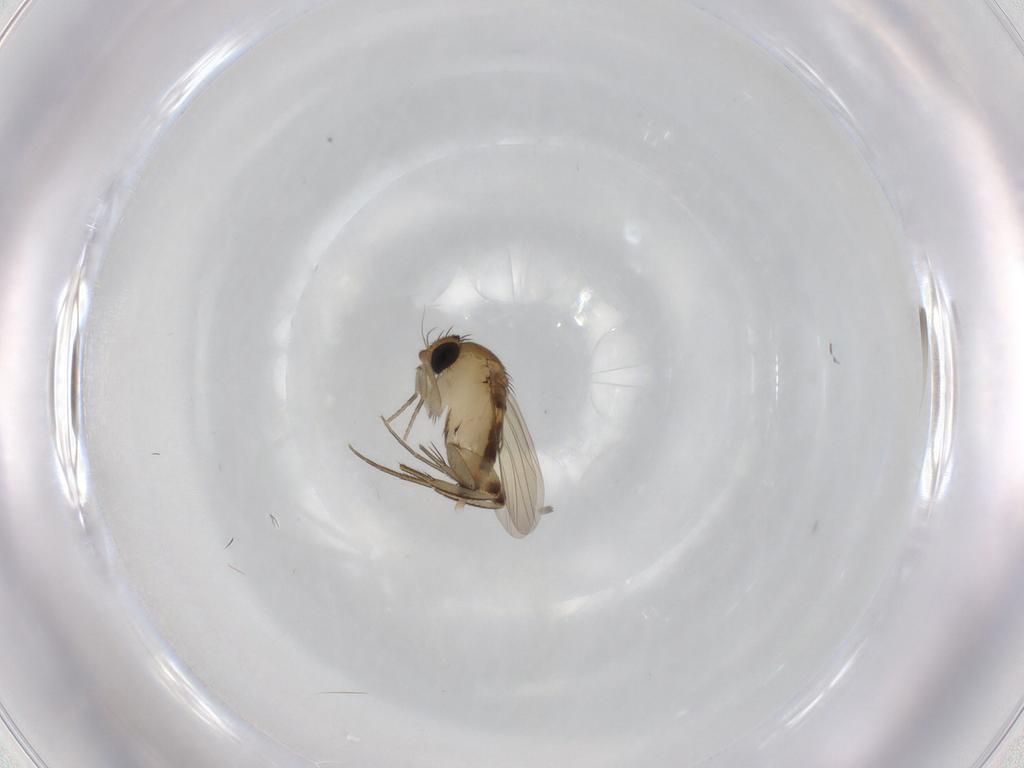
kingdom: Animalia
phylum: Arthropoda
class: Insecta
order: Diptera
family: Phoridae
